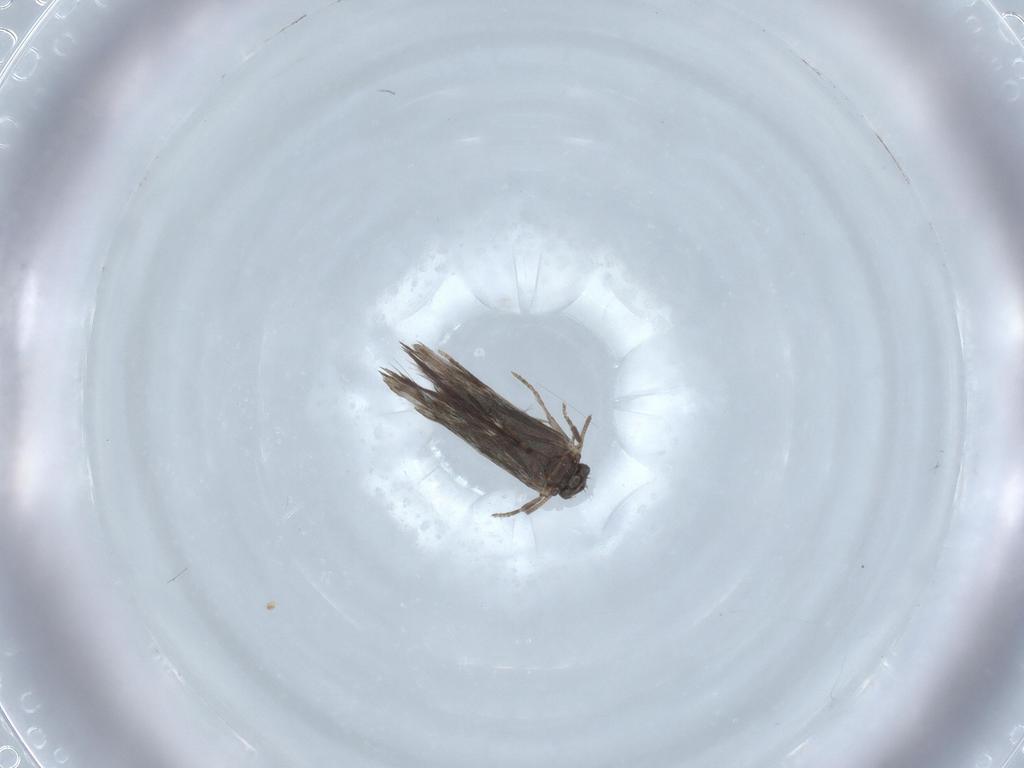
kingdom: Animalia
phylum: Arthropoda
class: Insecta
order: Trichoptera
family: Hydroptilidae
